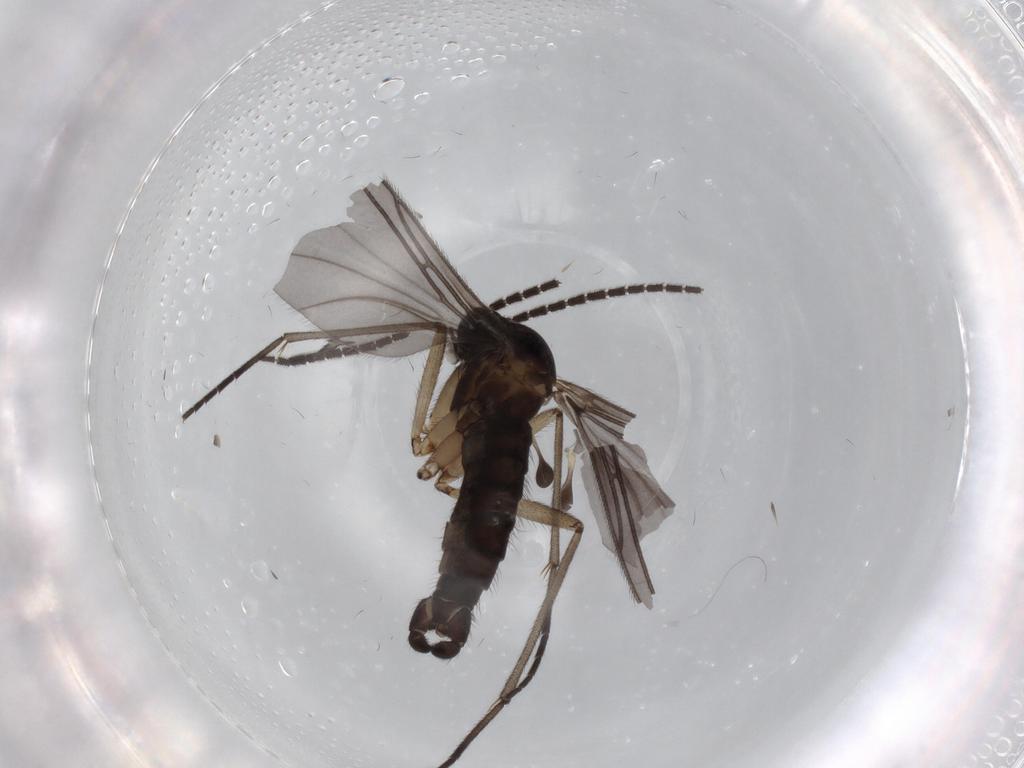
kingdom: Animalia
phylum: Arthropoda
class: Insecta
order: Diptera
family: Sciaridae
